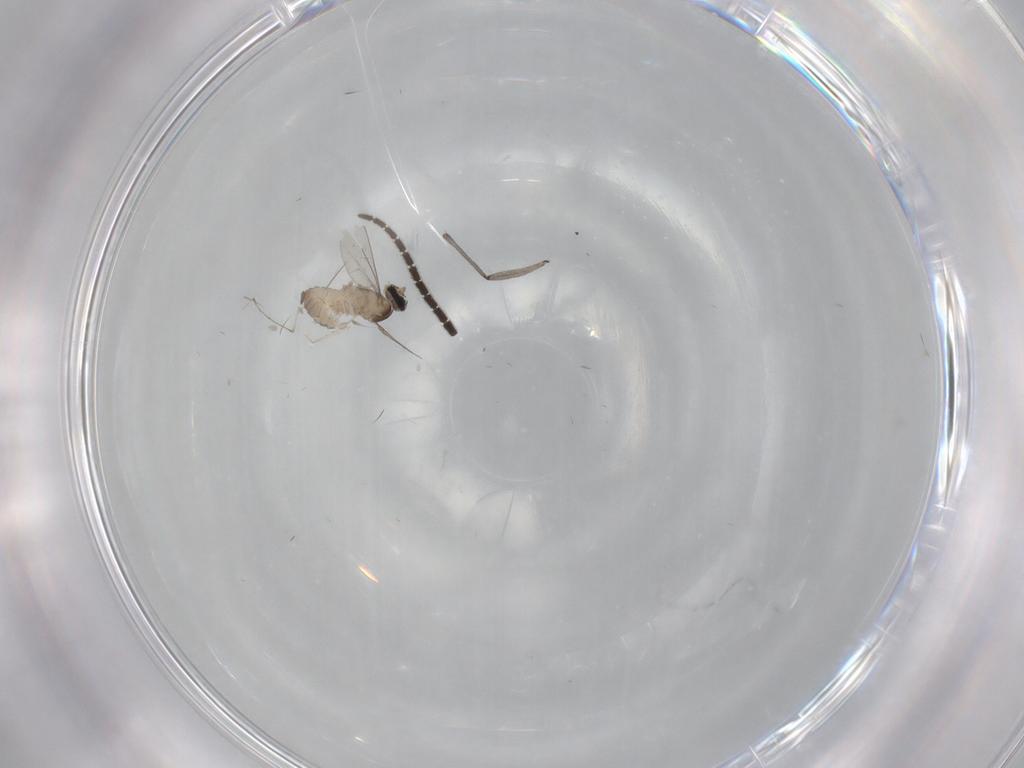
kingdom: Animalia
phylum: Arthropoda
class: Insecta
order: Diptera
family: Cecidomyiidae
